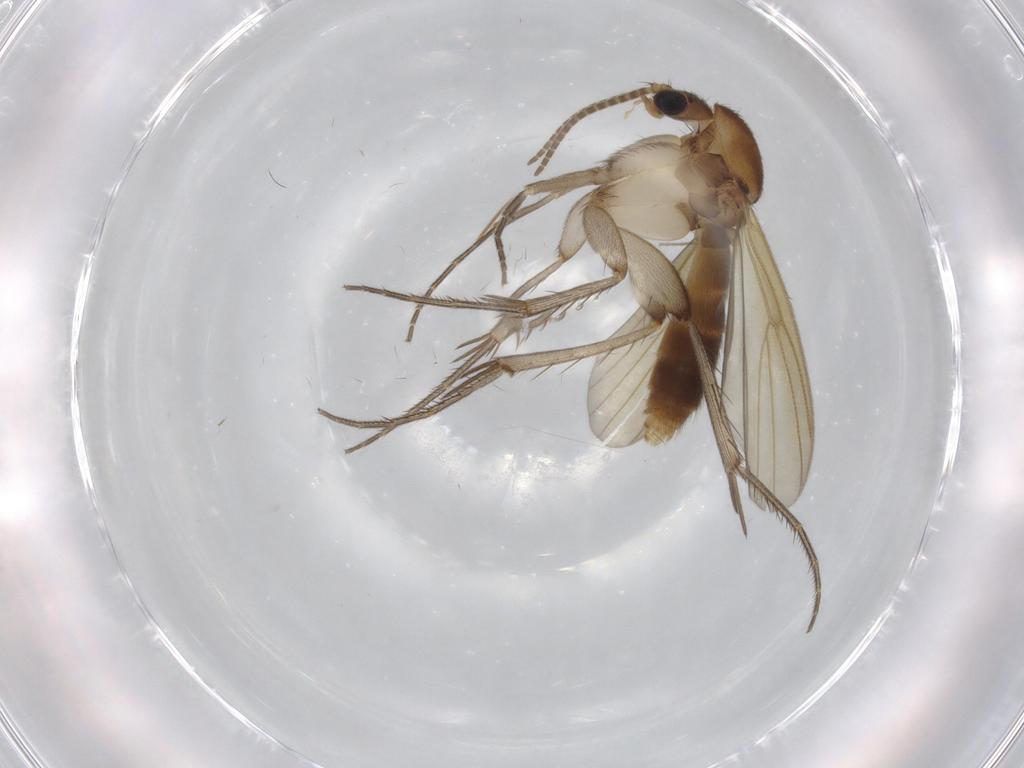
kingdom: Animalia
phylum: Arthropoda
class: Insecta
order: Diptera
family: Mycetophilidae
